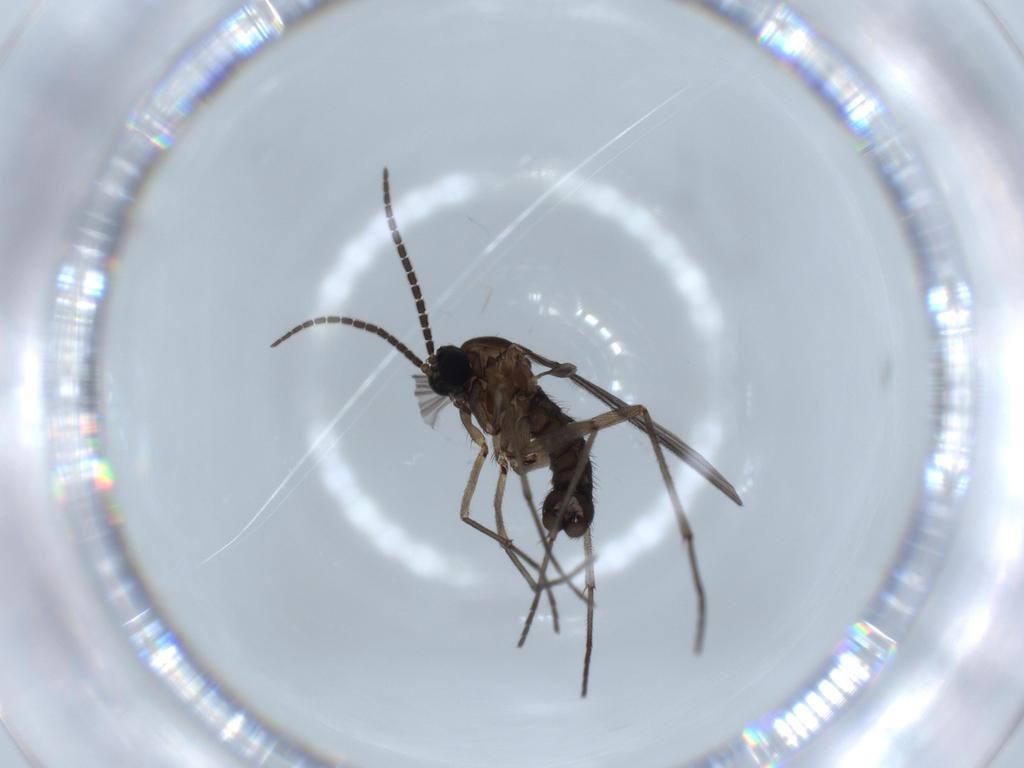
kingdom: Animalia
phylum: Arthropoda
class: Insecta
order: Diptera
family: Sciaridae
